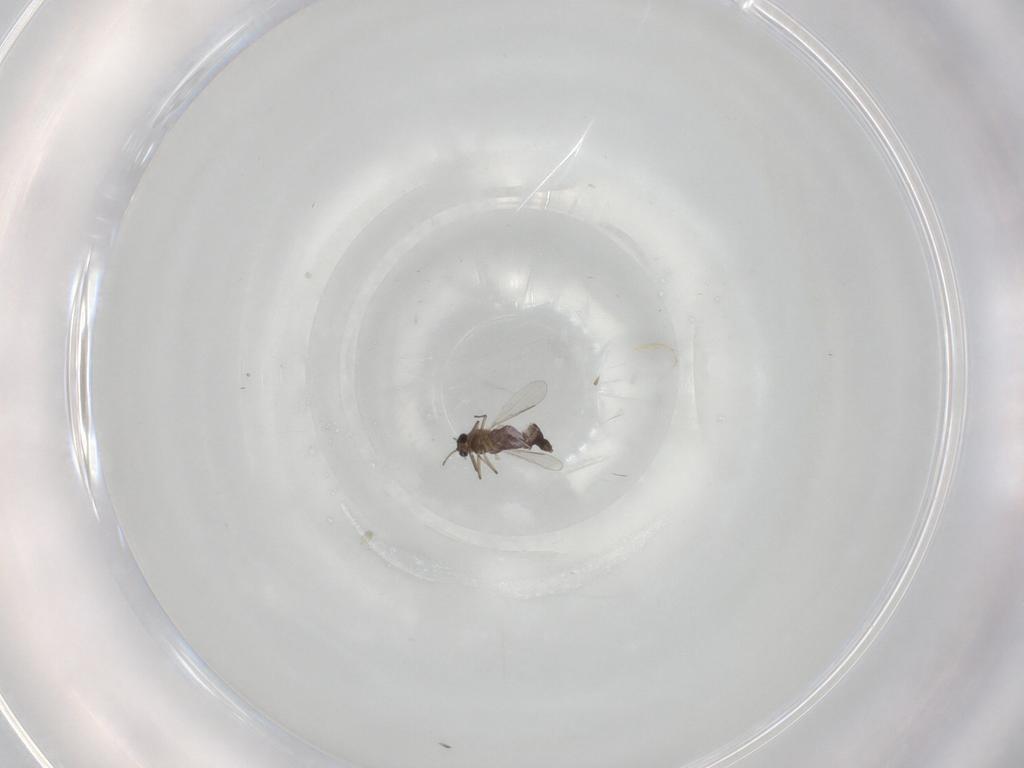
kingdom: Animalia
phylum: Arthropoda
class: Insecta
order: Diptera
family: Chironomidae
